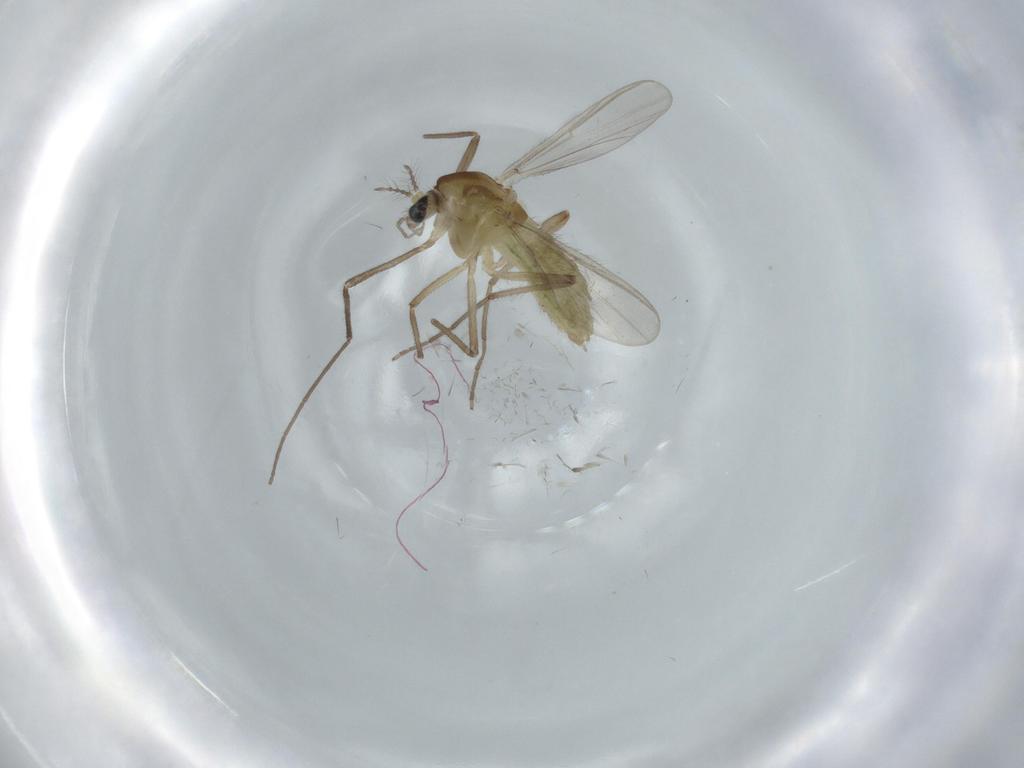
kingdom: Animalia
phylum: Arthropoda
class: Insecta
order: Diptera
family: Chironomidae
